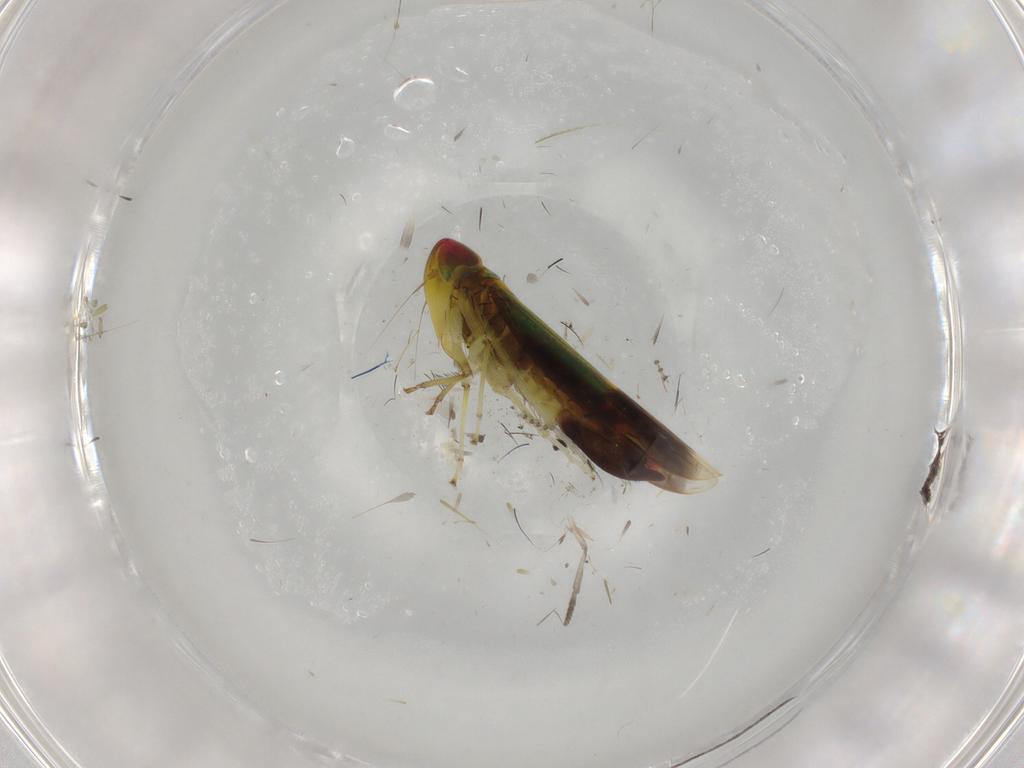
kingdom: Animalia
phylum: Arthropoda
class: Insecta
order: Hemiptera
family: Cicadellidae
